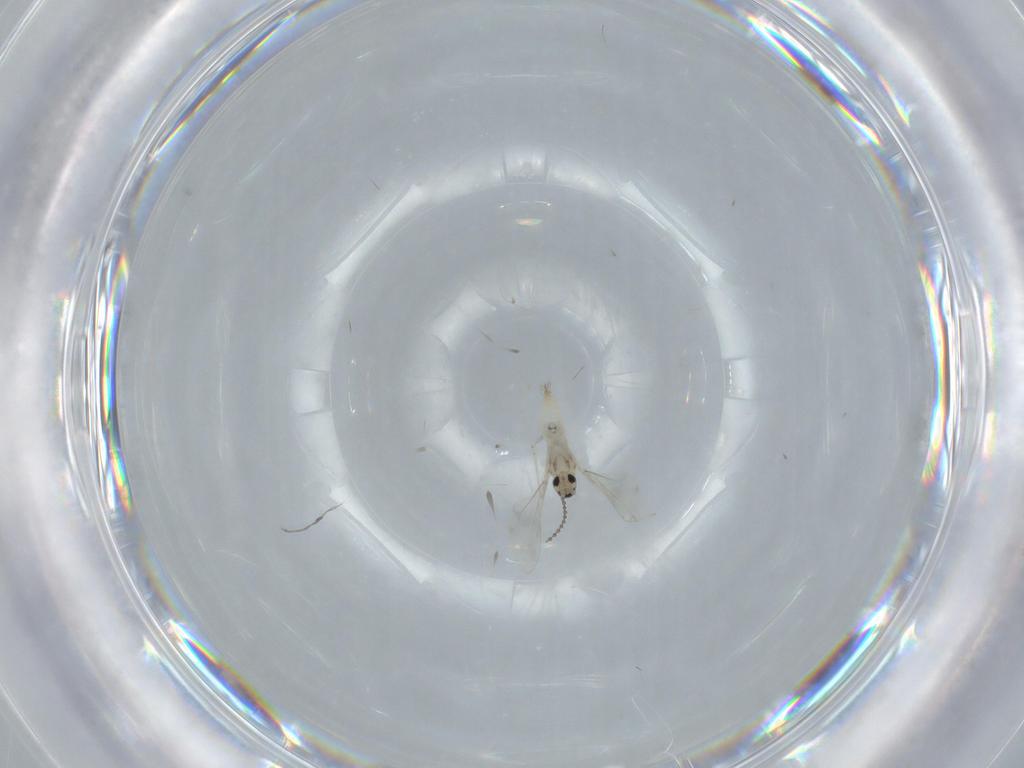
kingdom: Animalia
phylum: Arthropoda
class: Insecta
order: Diptera
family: Cecidomyiidae
